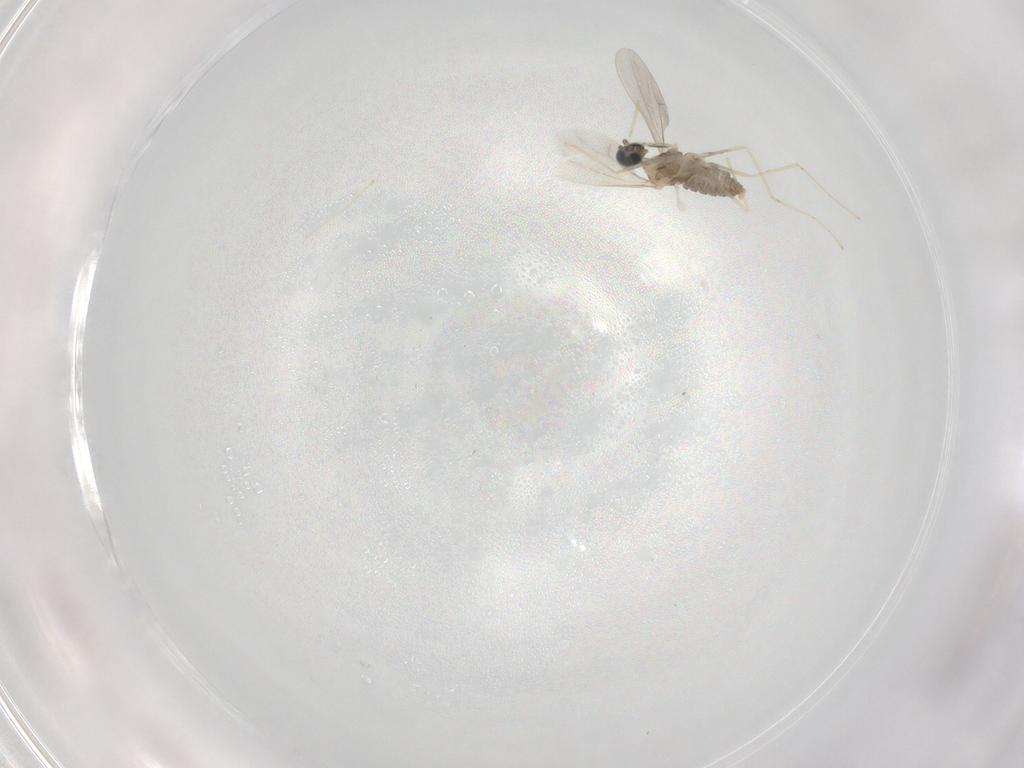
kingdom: Animalia
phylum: Arthropoda
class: Insecta
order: Diptera
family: Cecidomyiidae
